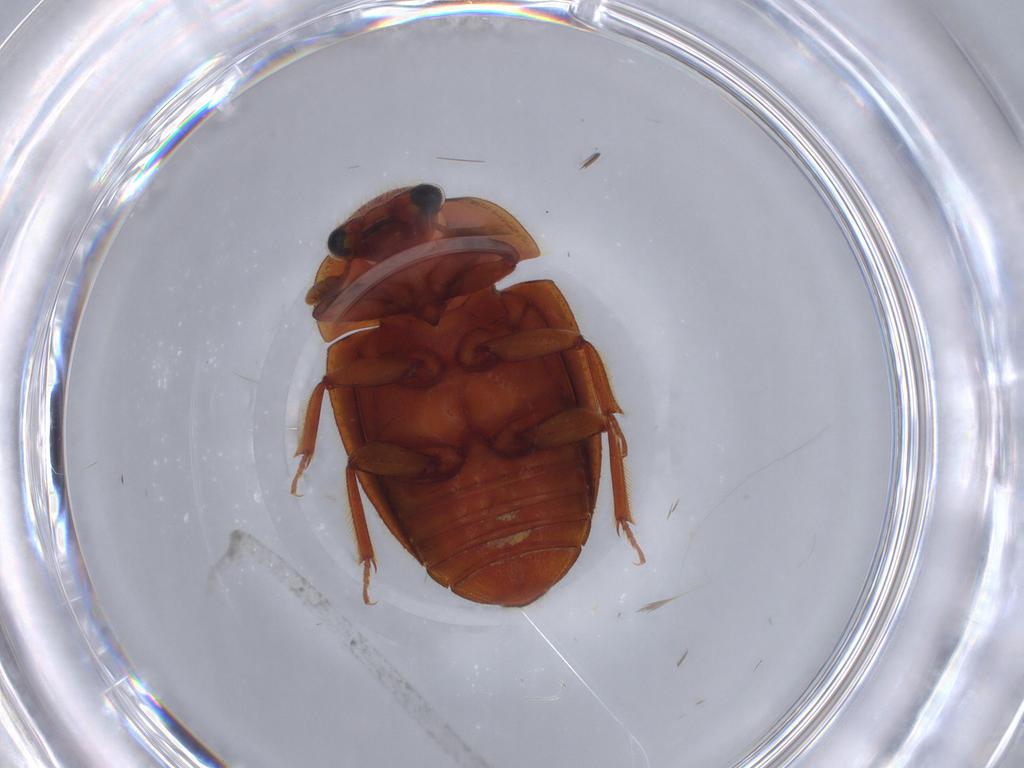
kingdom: Animalia
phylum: Arthropoda
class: Insecta
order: Coleoptera
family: Nitidulidae
